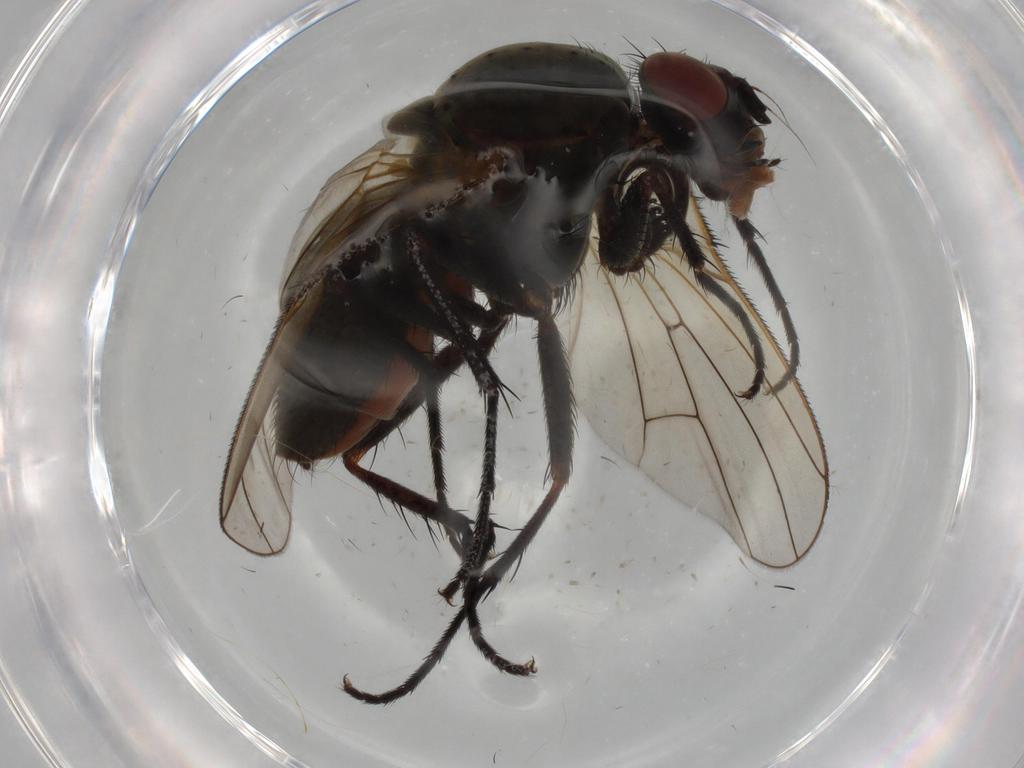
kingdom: Animalia
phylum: Arthropoda
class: Insecta
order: Diptera
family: Anthomyiidae
